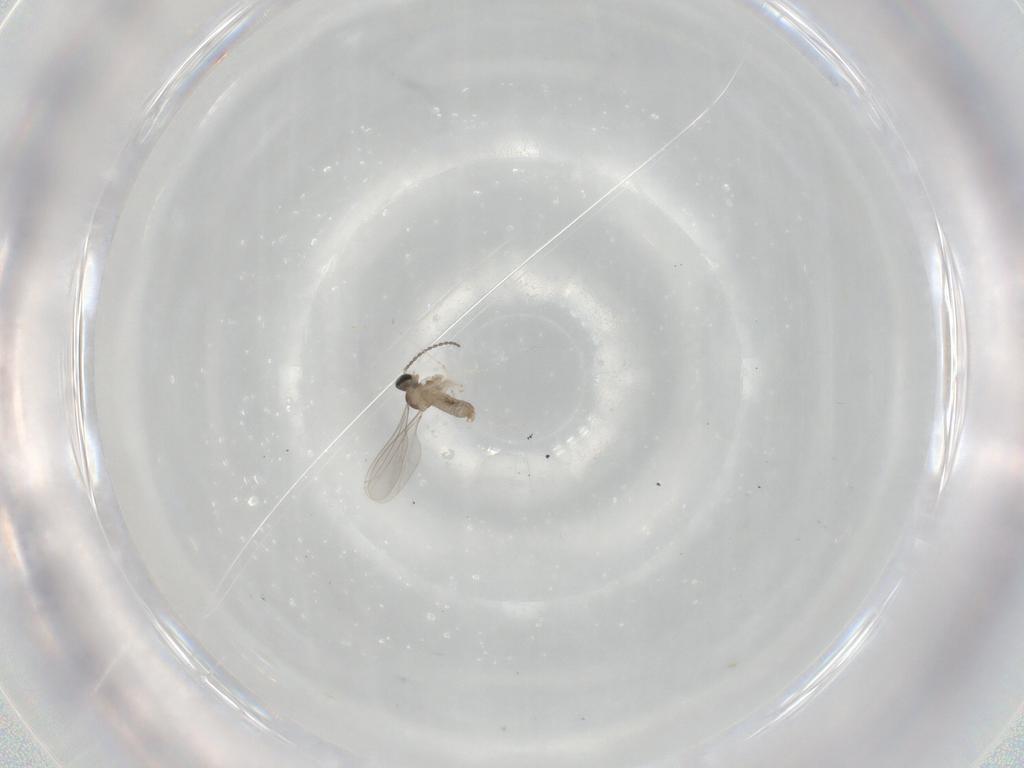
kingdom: Animalia
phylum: Arthropoda
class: Insecta
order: Diptera
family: Cecidomyiidae
